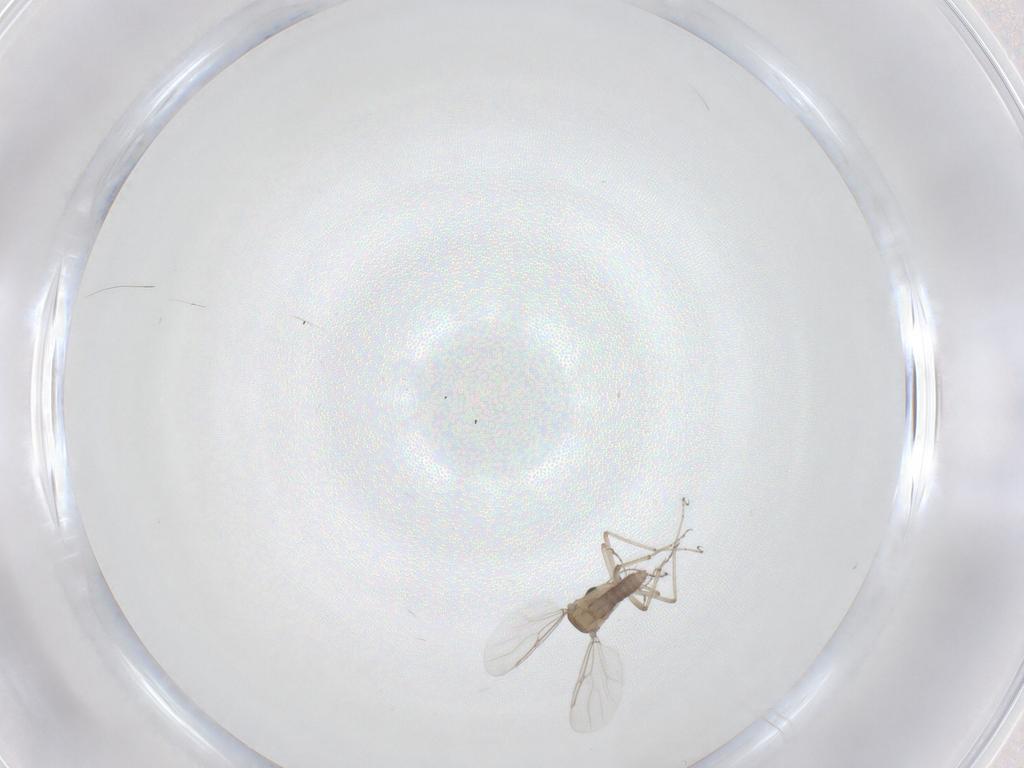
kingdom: Animalia
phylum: Arthropoda
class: Insecta
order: Diptera
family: Ceratopogonidae
